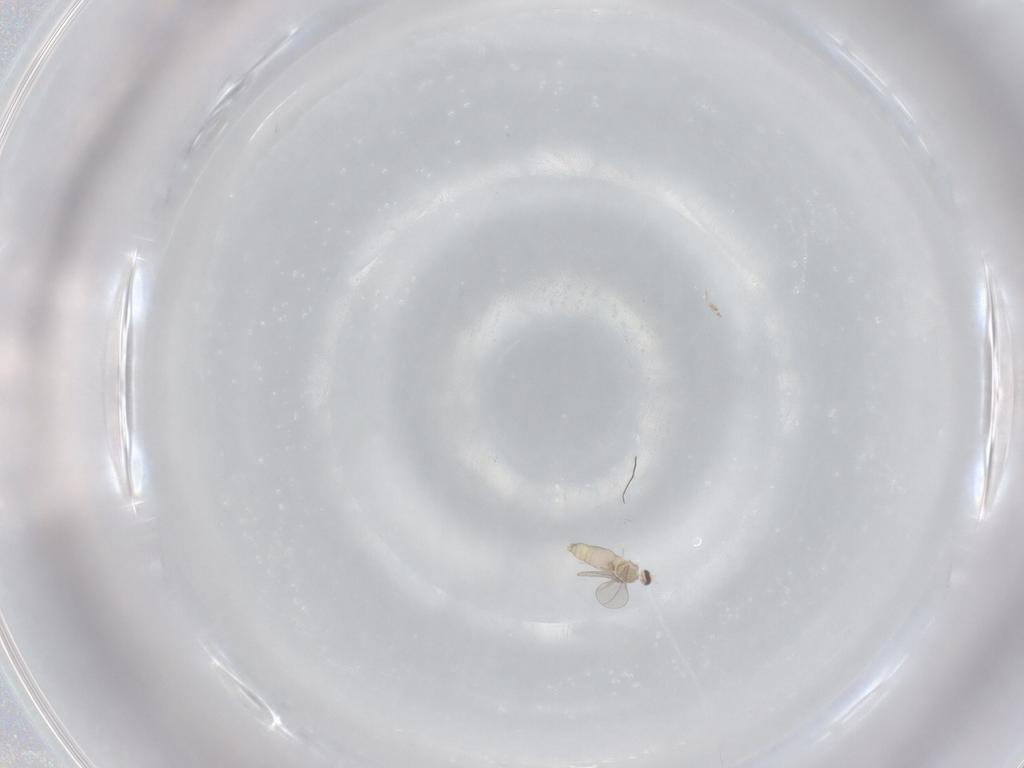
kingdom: Animalia
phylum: Arthropoda
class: Insecta
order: Diptera
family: Cecidomyiidae
